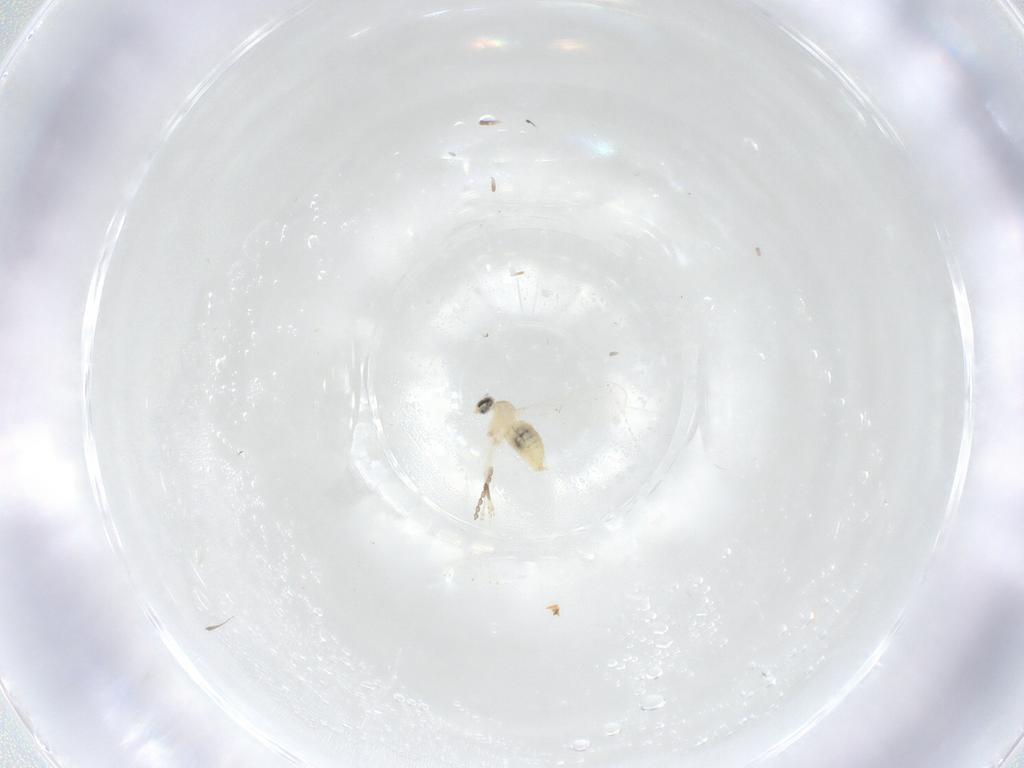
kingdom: Animalia
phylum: Arthropoda
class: Insecta
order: Diptera
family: Cecidomyiidae
